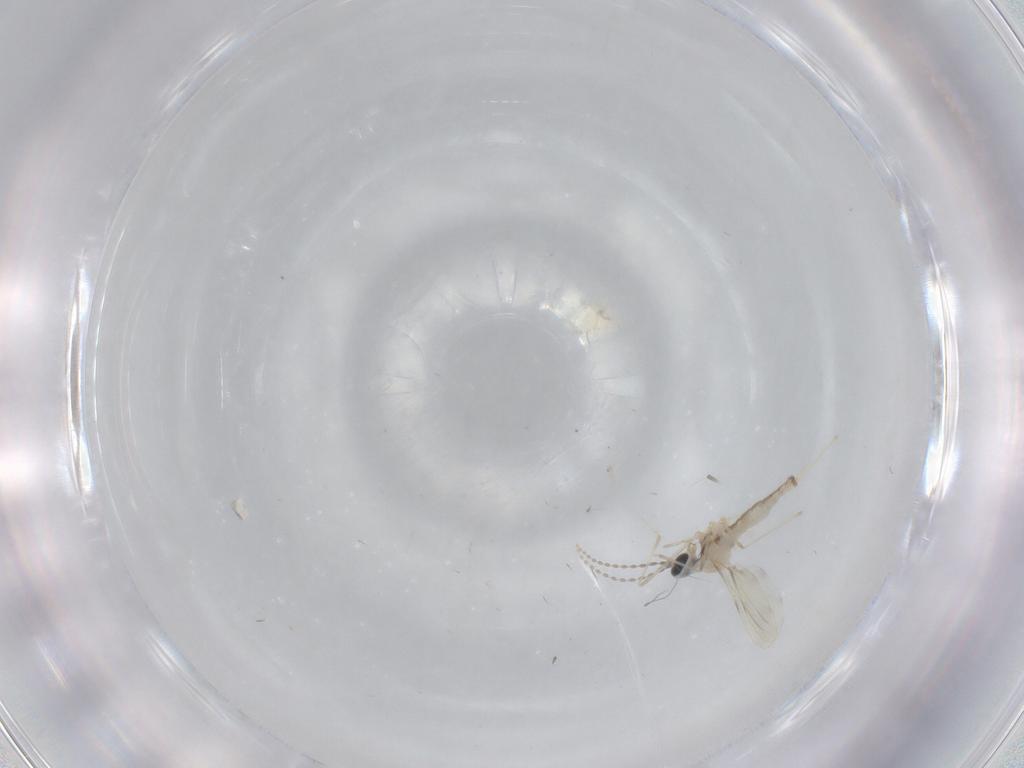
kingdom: Animalia
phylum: Arthropoda
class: Insecta
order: Diptera
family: Cecidomyiidae
